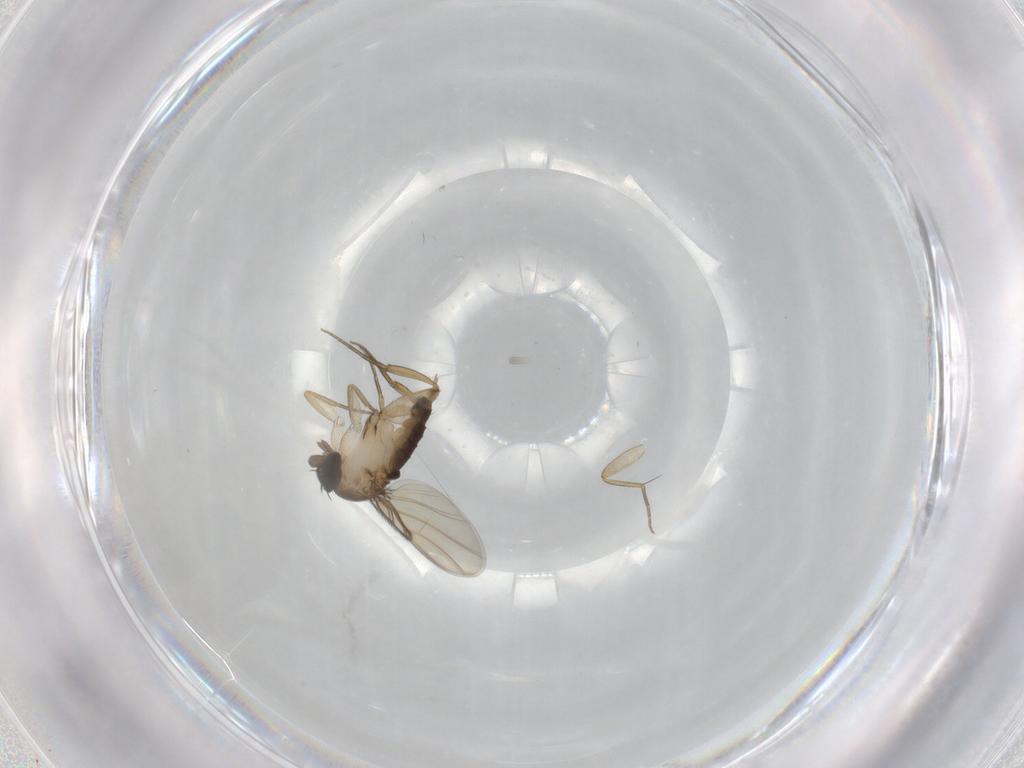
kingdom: Animalia
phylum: Arthropoda
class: Insecta
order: Diptera
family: Phoridae
